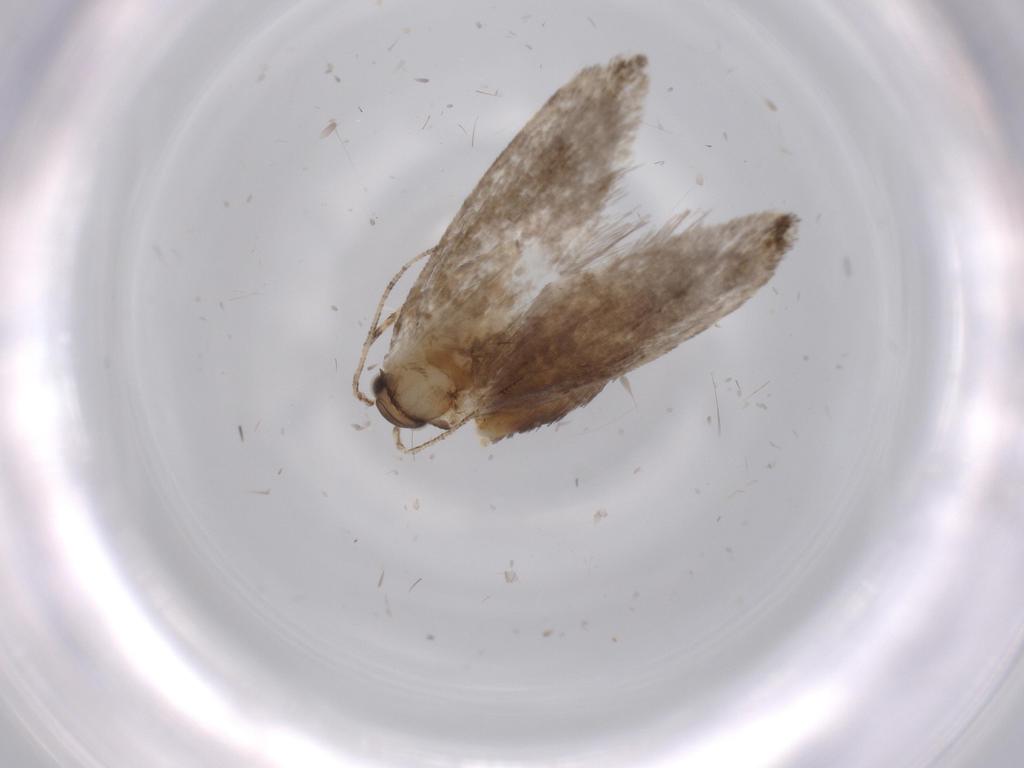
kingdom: Animalia
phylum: Arthropoda
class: Insecta
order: Lepidoptera
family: Tineidae
